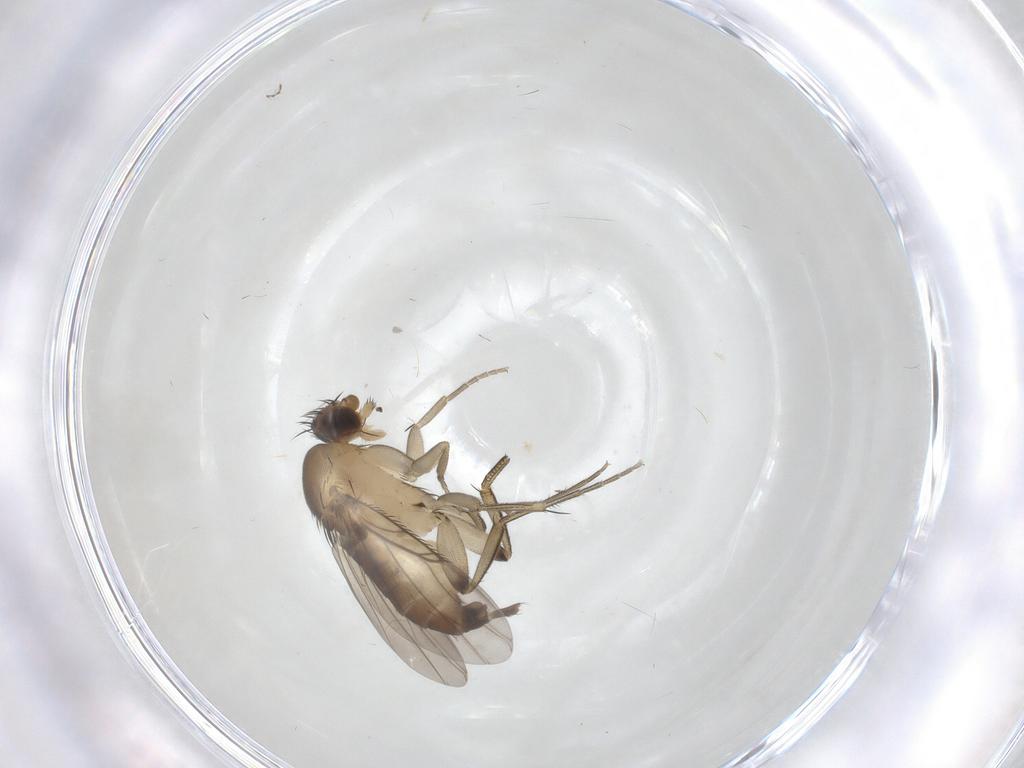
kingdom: Animalia
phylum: Arthropoda
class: Insecta
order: Diptera
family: Phoridae
